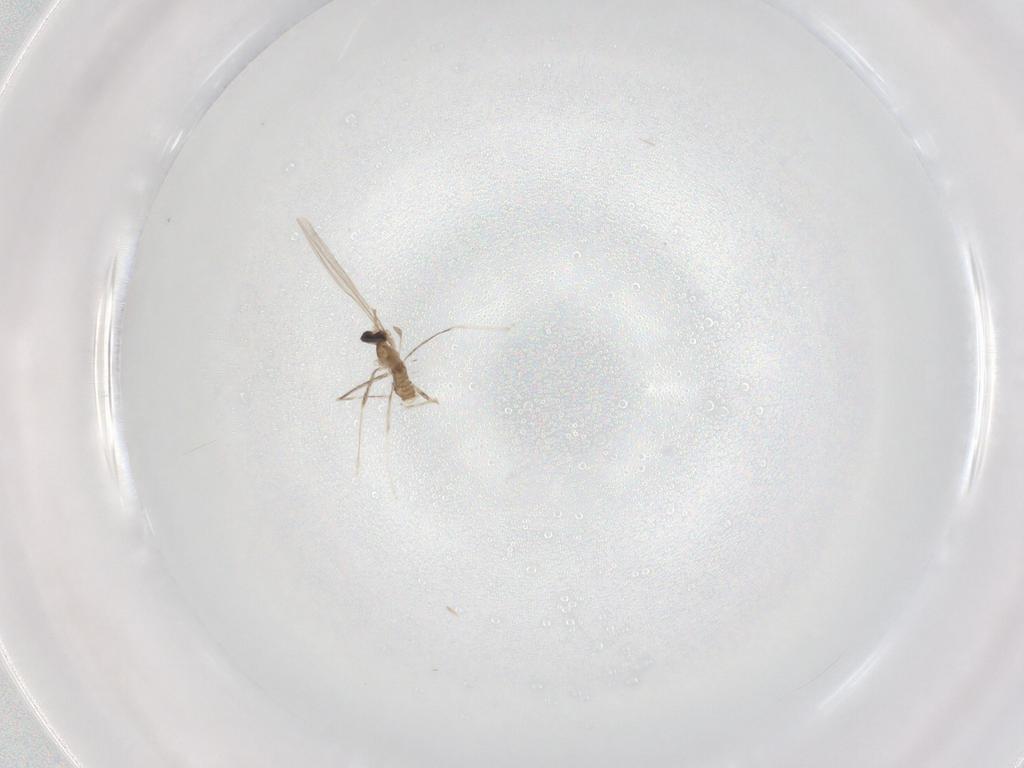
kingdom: Animalia
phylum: Arthropoda
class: Insecta
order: Diptera
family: Phoridae
